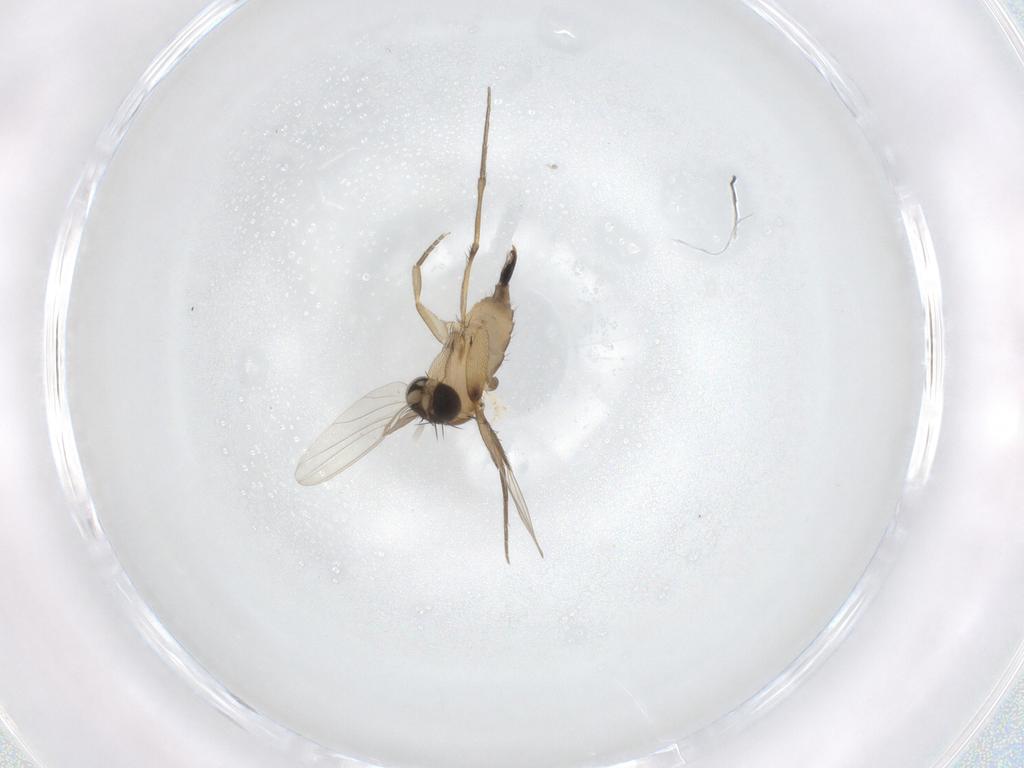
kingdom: Animalia
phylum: Arthropoda
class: Insecta
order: Diptera
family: Phoridae
